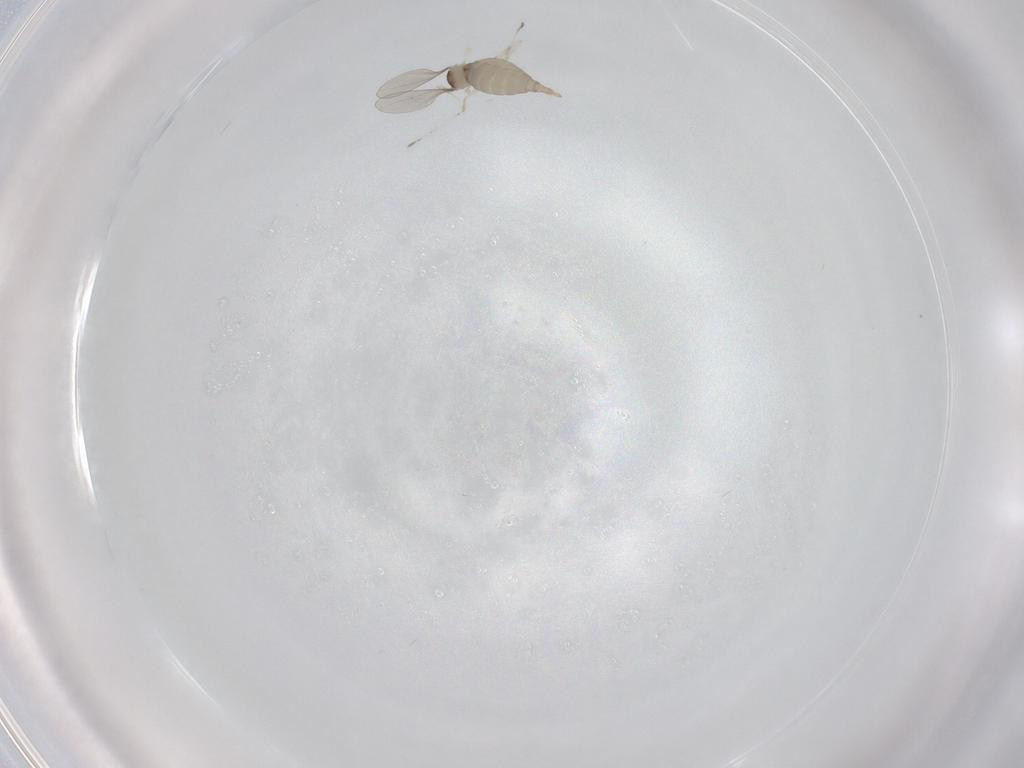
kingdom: Animalia
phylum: Arthropoda
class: Insecta
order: Diptera
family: Cecidomyiidae
